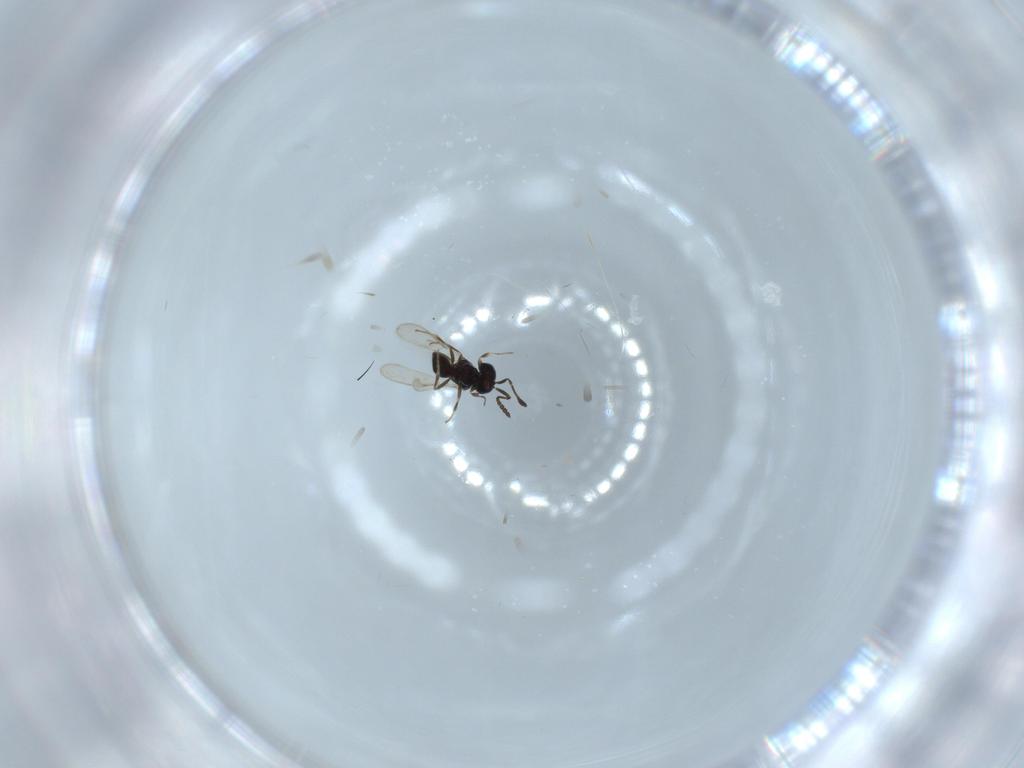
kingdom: Animalia
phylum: Arthropoda
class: Insecta
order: Hymenoptera
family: Scelionidae
